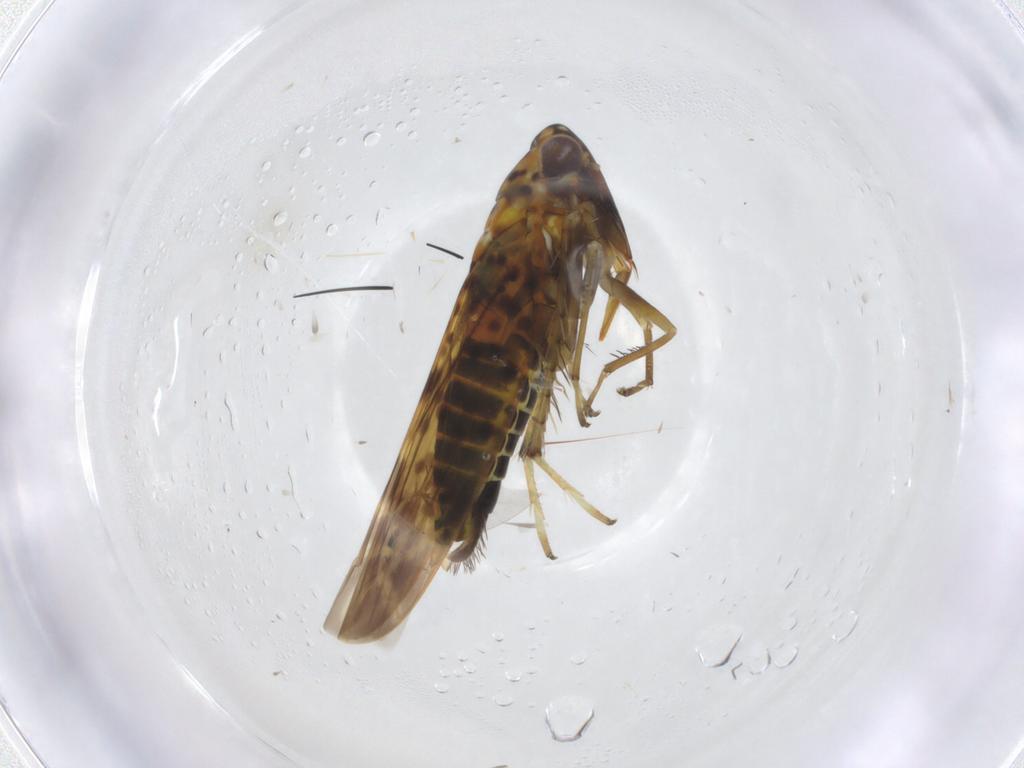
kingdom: Animalia
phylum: Arthropoda
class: Insecta
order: Hemiptera
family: Cicadellidae
